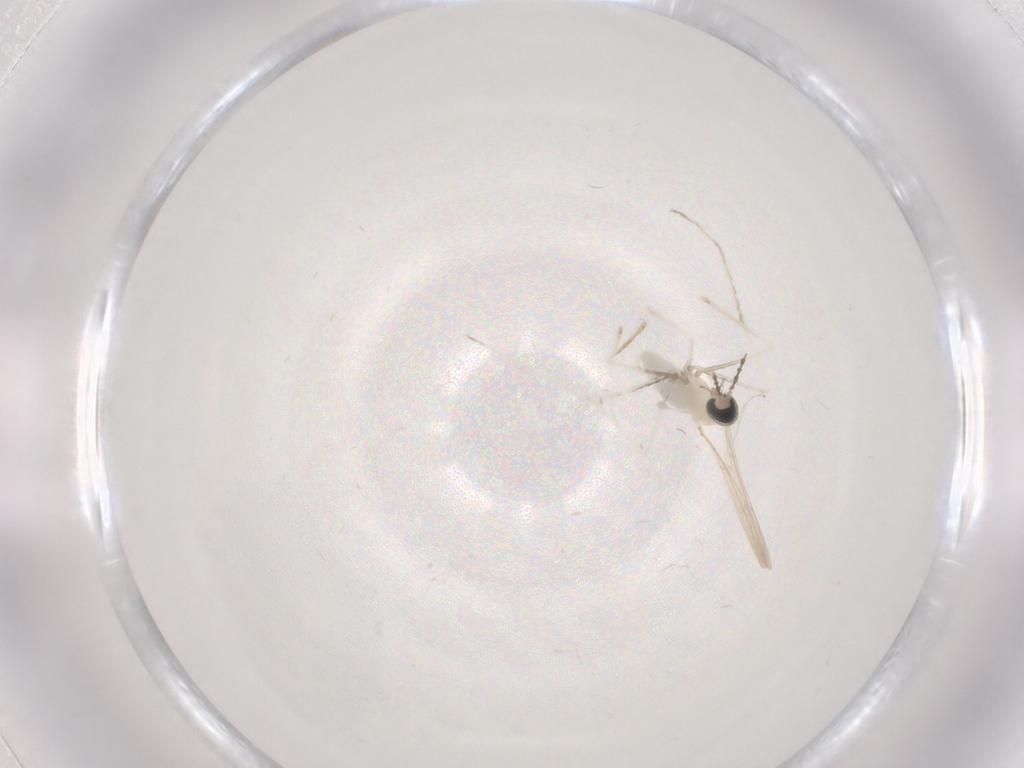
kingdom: Animalia
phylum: Arthropoda
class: Insecta
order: Diptera
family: Cecidomyiidae
